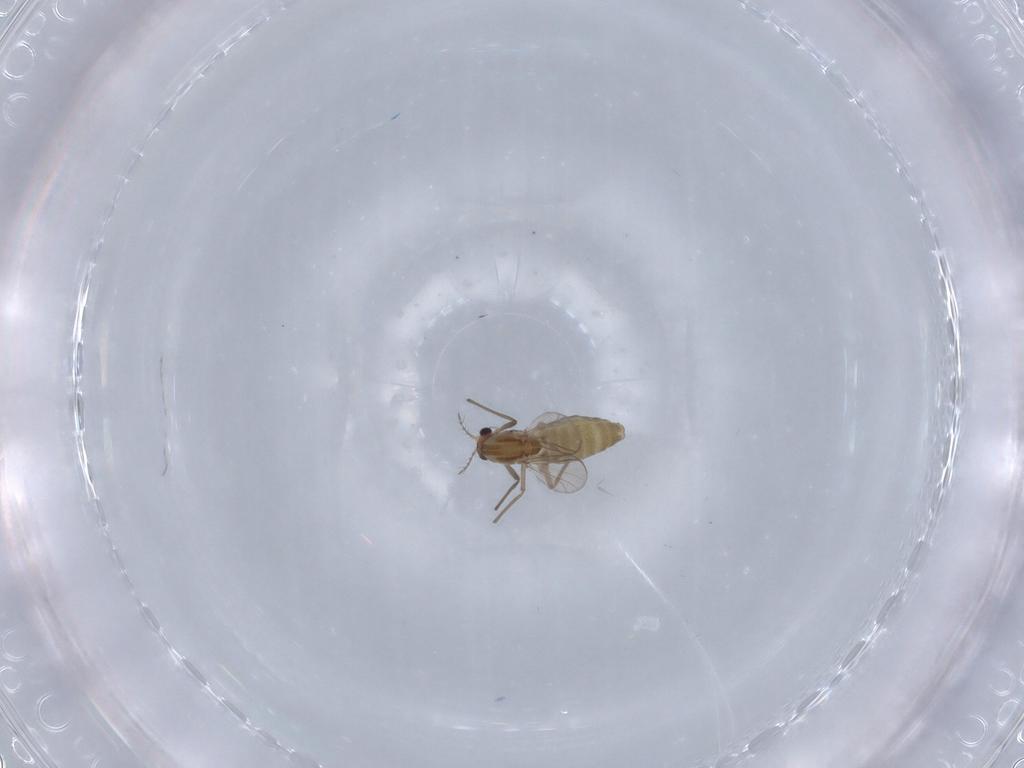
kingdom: Animalia
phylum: Arthropoda
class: Insecta
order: Diptera
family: Chironomidae
